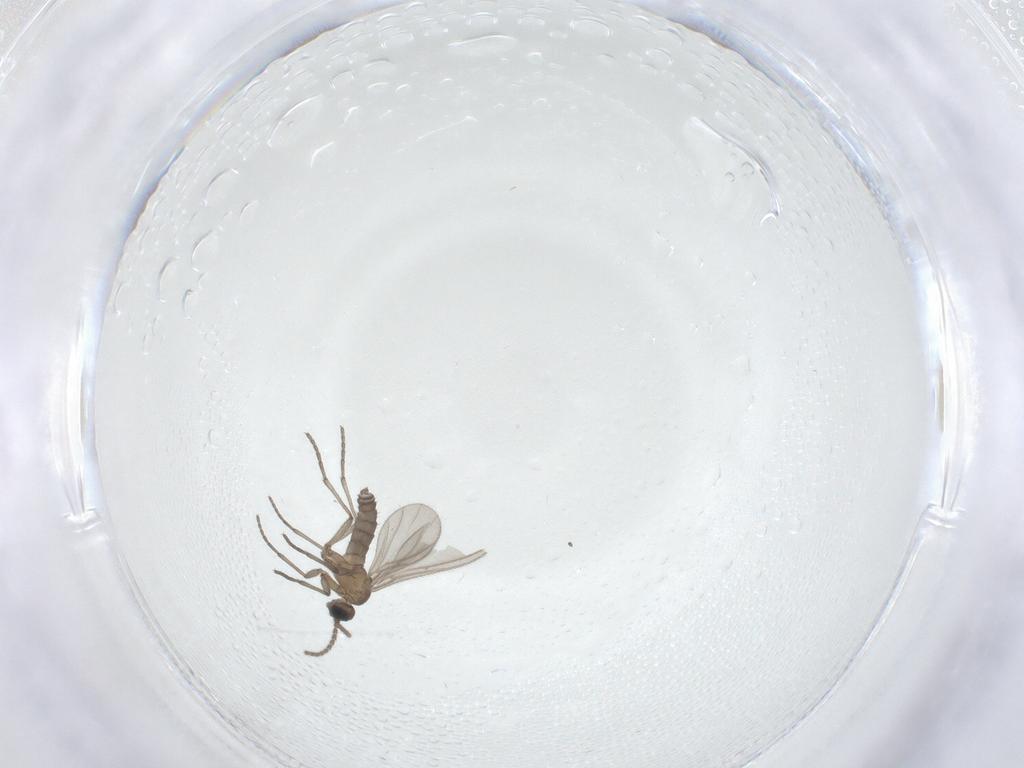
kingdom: Animalia
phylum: Arthropoda
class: Insecta
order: Diptera
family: Sciaridae
